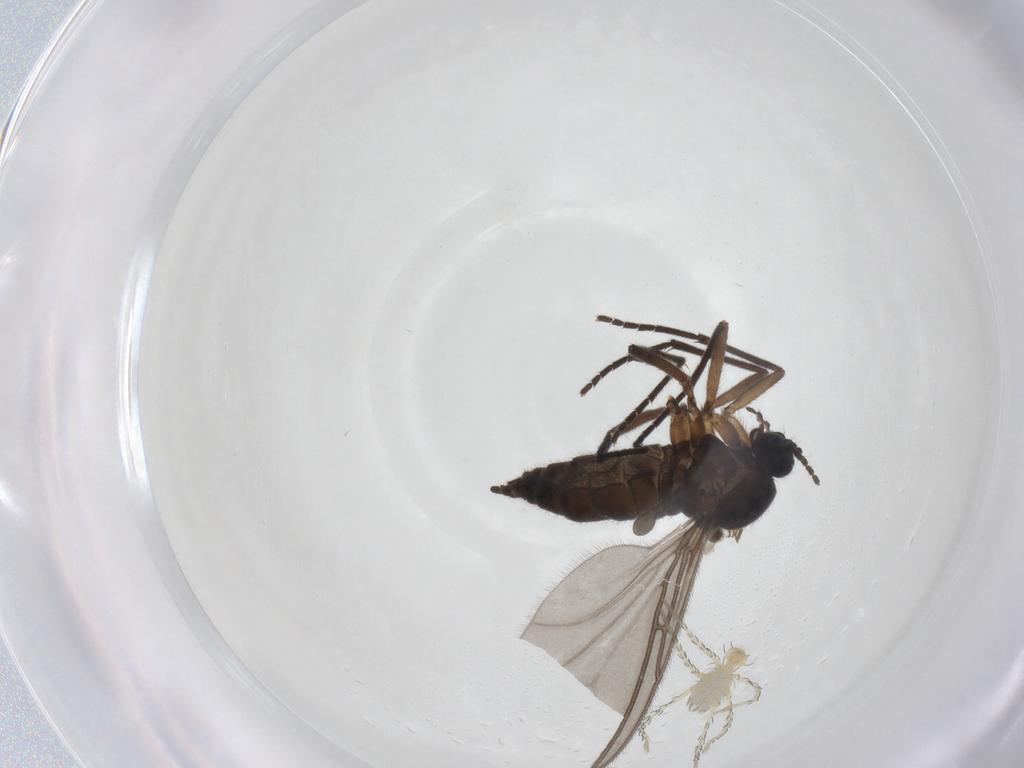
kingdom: Animalia
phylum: Arthropoda
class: Insecta
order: Diptera
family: Sciaridae
